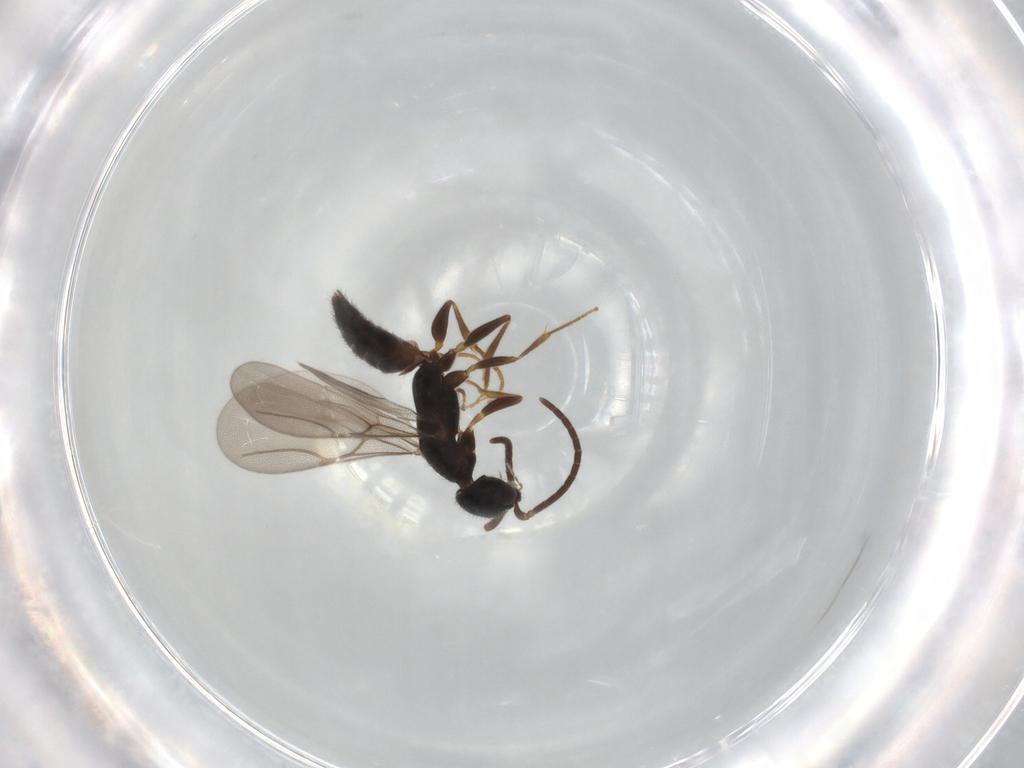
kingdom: Animalia
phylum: Arthropoda
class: Insecta
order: Hymenoptera
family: Bethylidae
